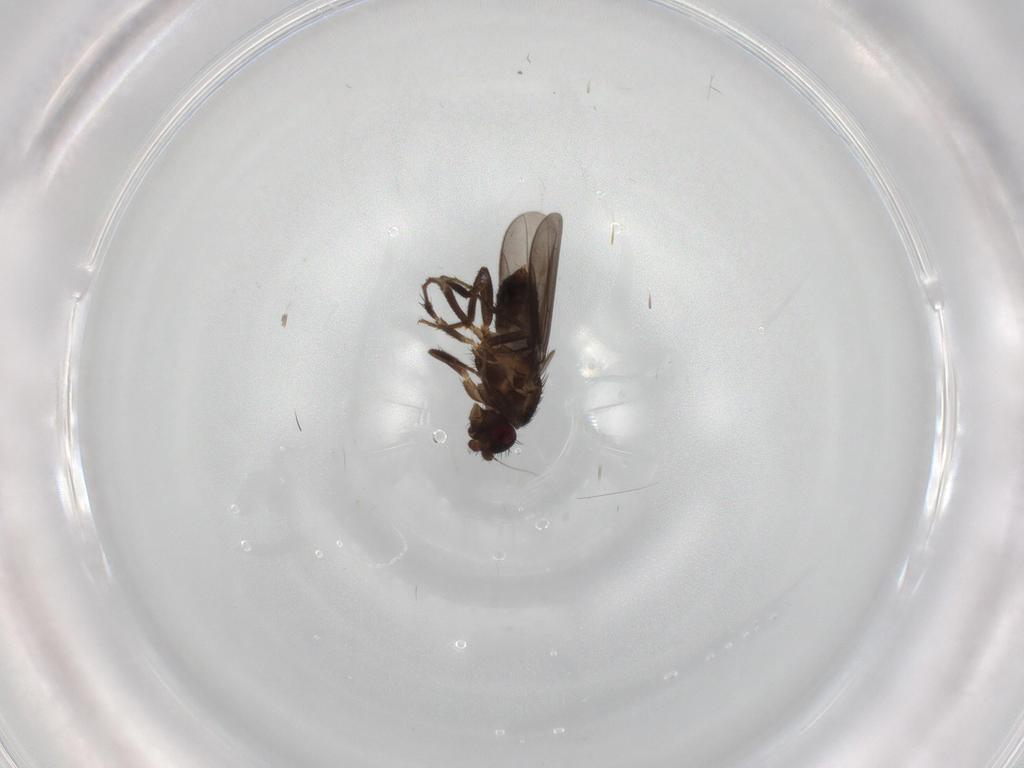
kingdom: Animalia
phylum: Arthropoda
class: Insecta
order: Diptera
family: Sphaeroceridae
